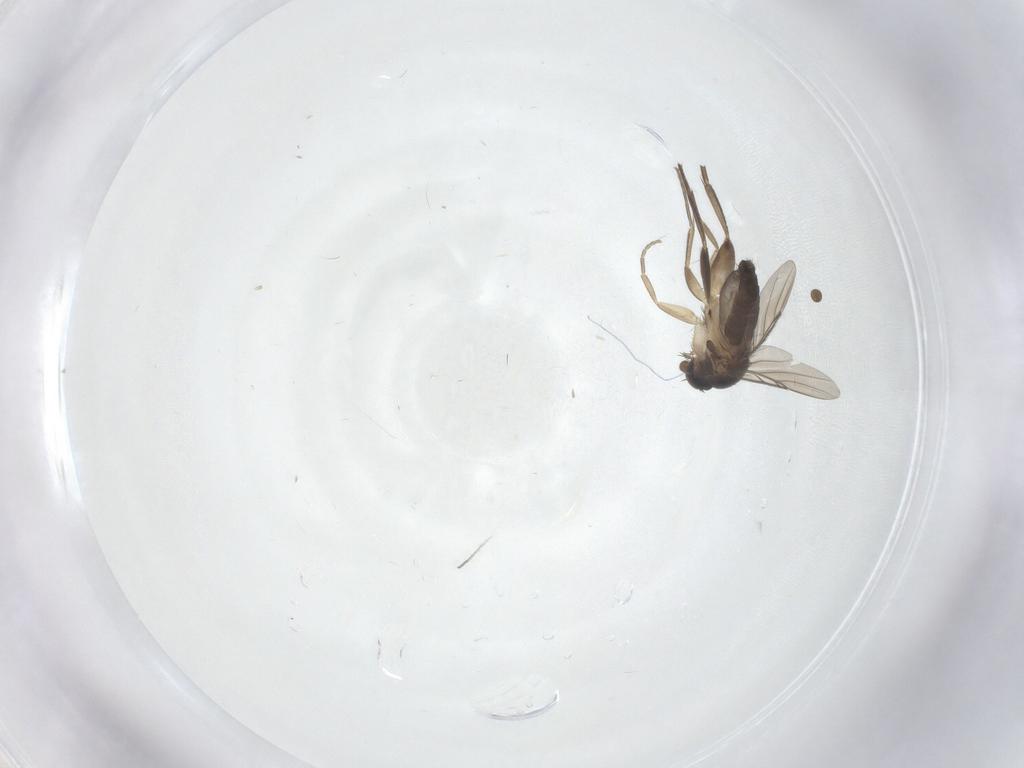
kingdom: Animalia
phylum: Arthropoda
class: Insecta
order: Diptera
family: Phoridae
